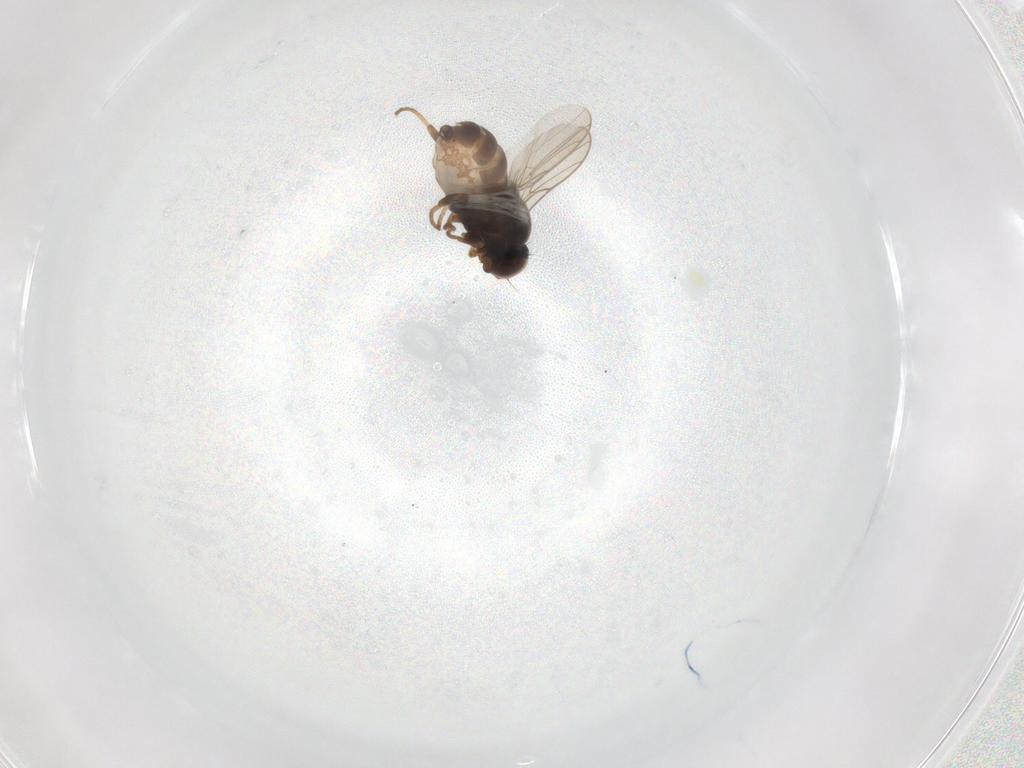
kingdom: Animalia
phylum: Arthropoda
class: Insecta
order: Diptera
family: Chloropidae
